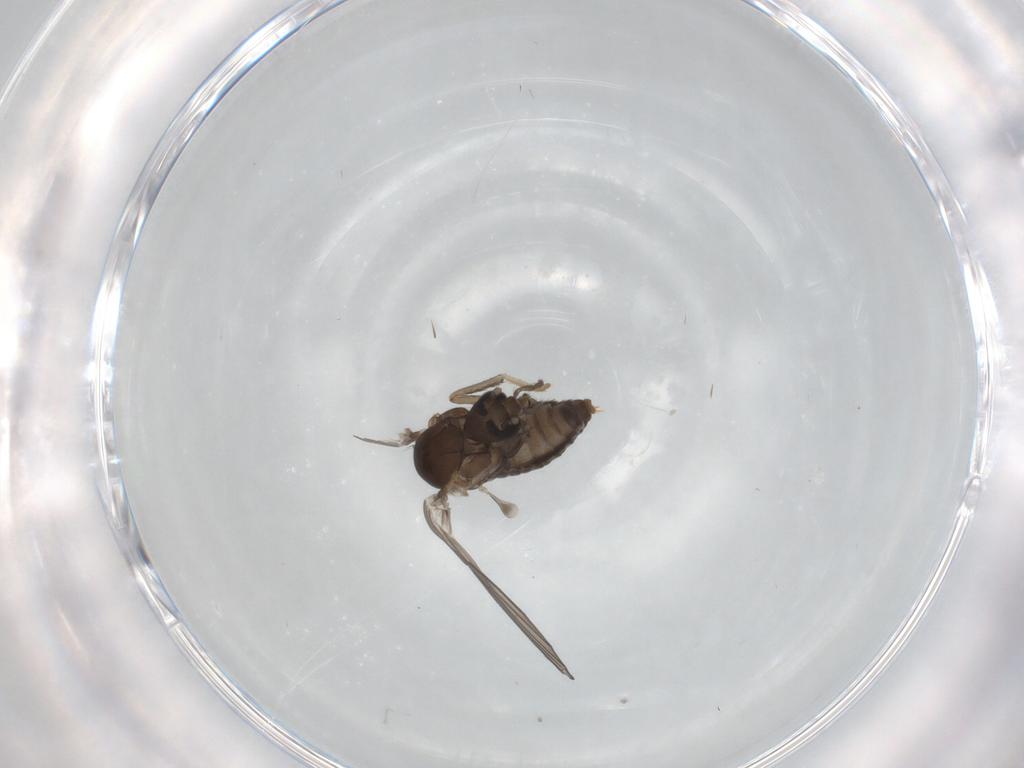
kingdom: Animalia
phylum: Arthropoda
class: Insecta
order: Diptera
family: Psychodidae
